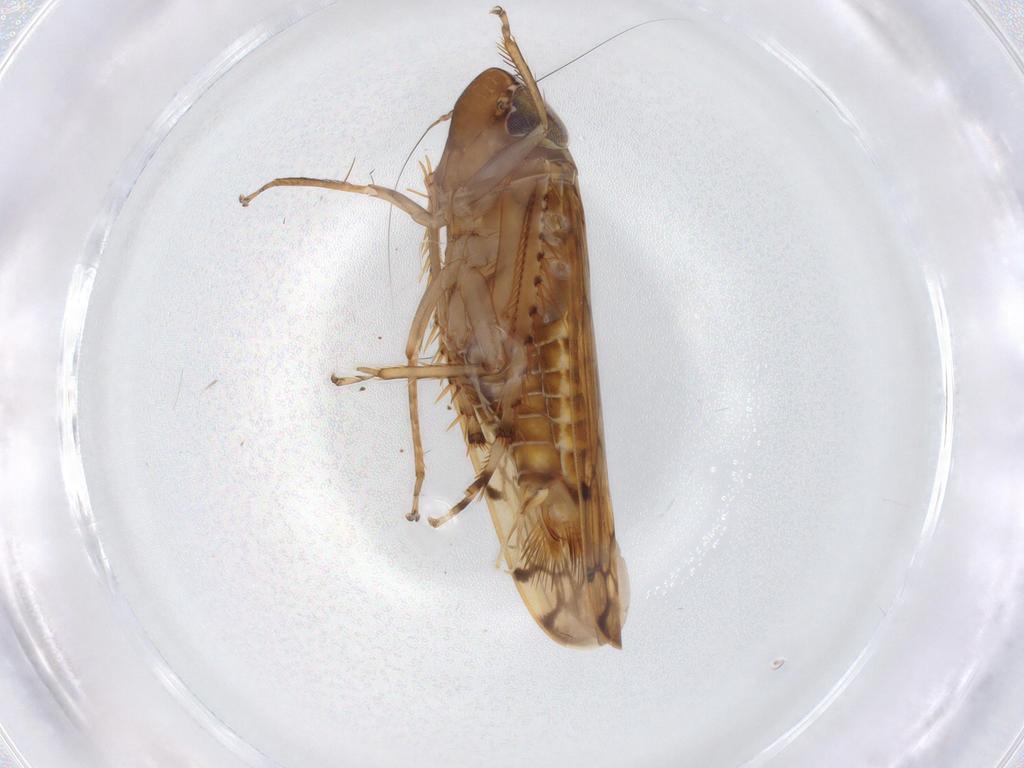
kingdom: Animalia
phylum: Arthropoda
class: Insecta
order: Hemiptera
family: Cicadellidae
